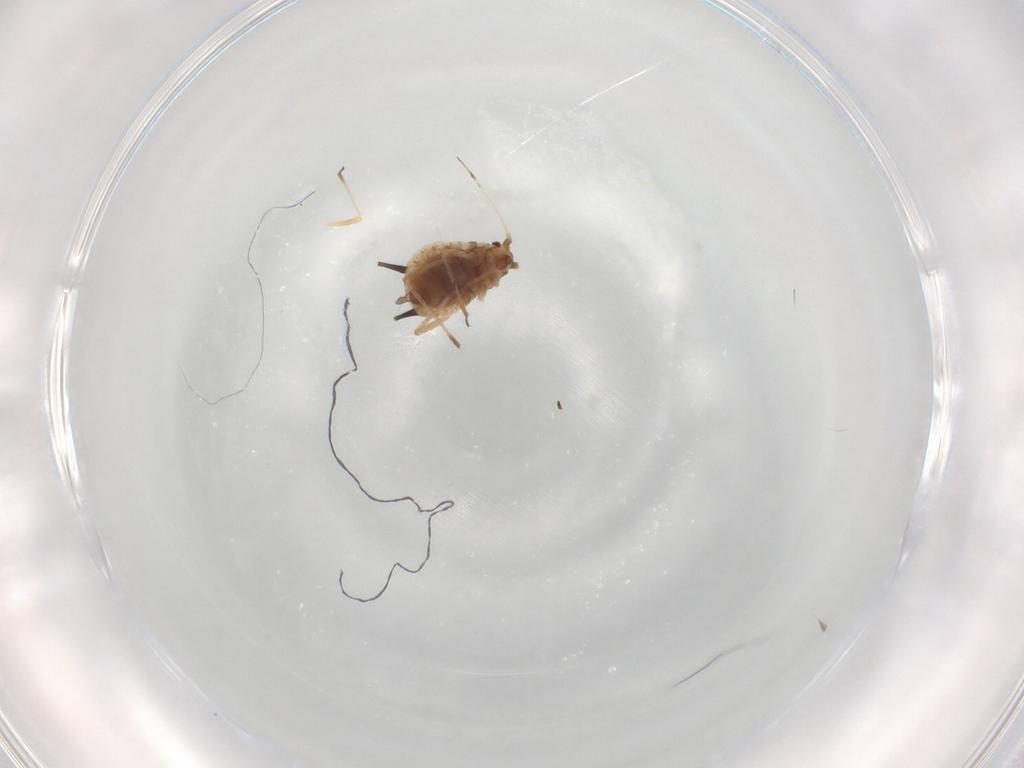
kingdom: Animalia
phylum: Arthropoda
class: Insecta
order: Hemiptera
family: Aphididae
